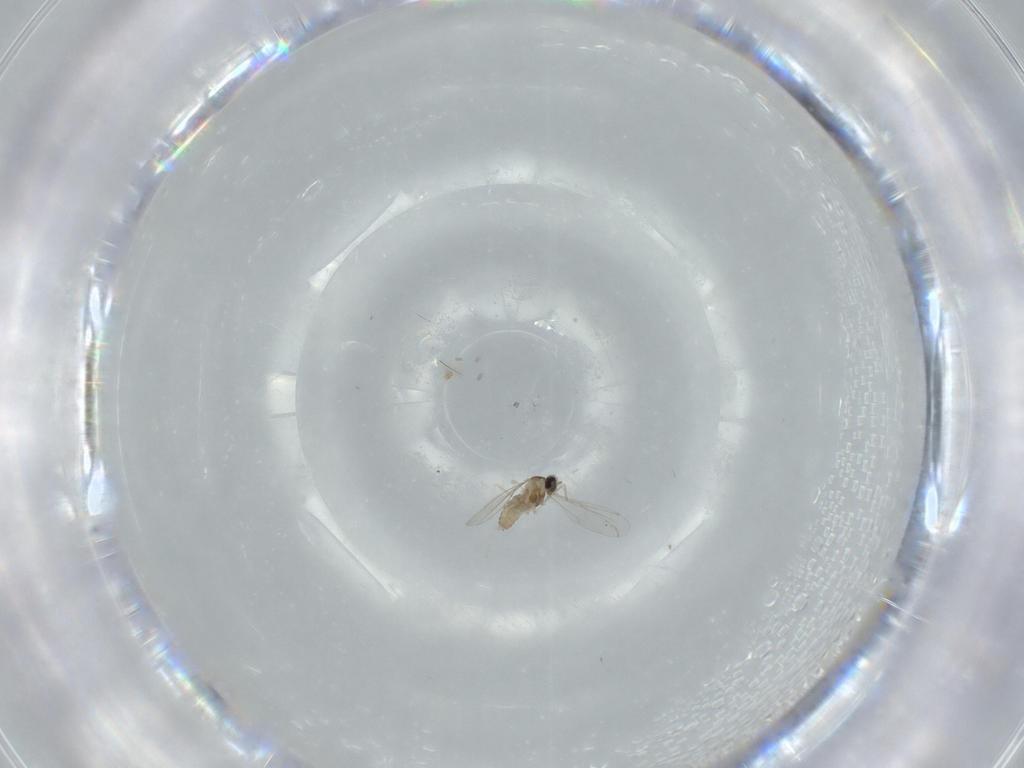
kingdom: Animalia
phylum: Arthropoda
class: Insecta
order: Diptera
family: Cecidomyiidae
